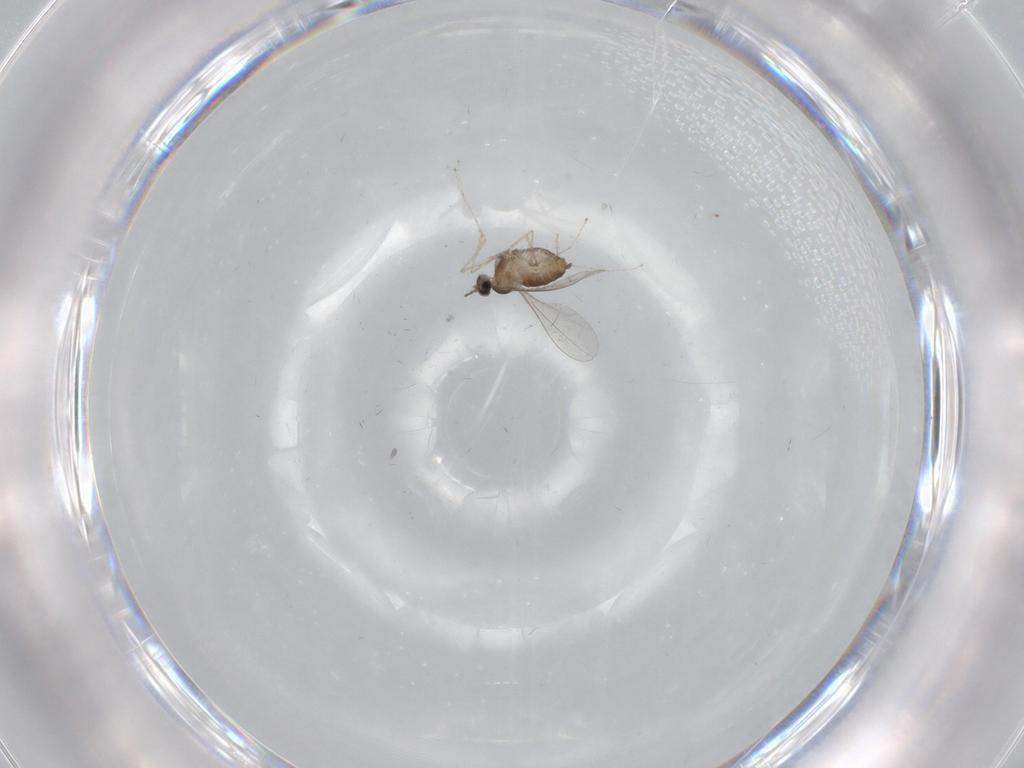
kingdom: Animalia
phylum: Arthropoda
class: Insecta
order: Diptera
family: Cecidomyiidae
